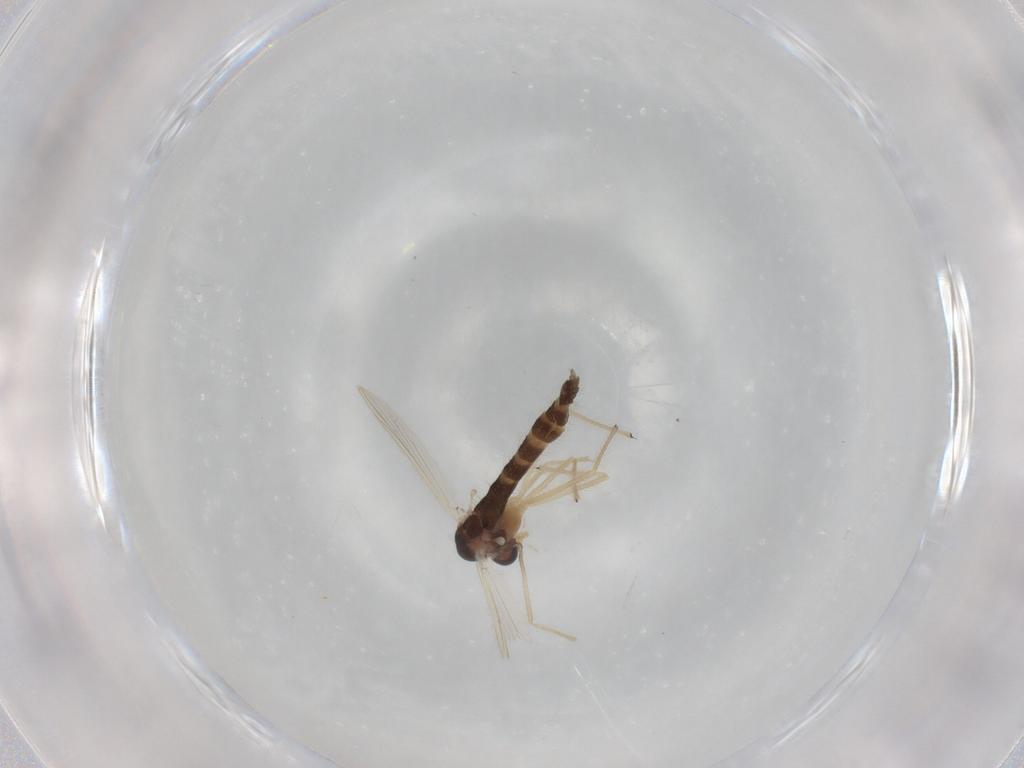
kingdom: Animalia
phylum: Arthropoda
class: Insecta
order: Diptera
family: Chironomidae
